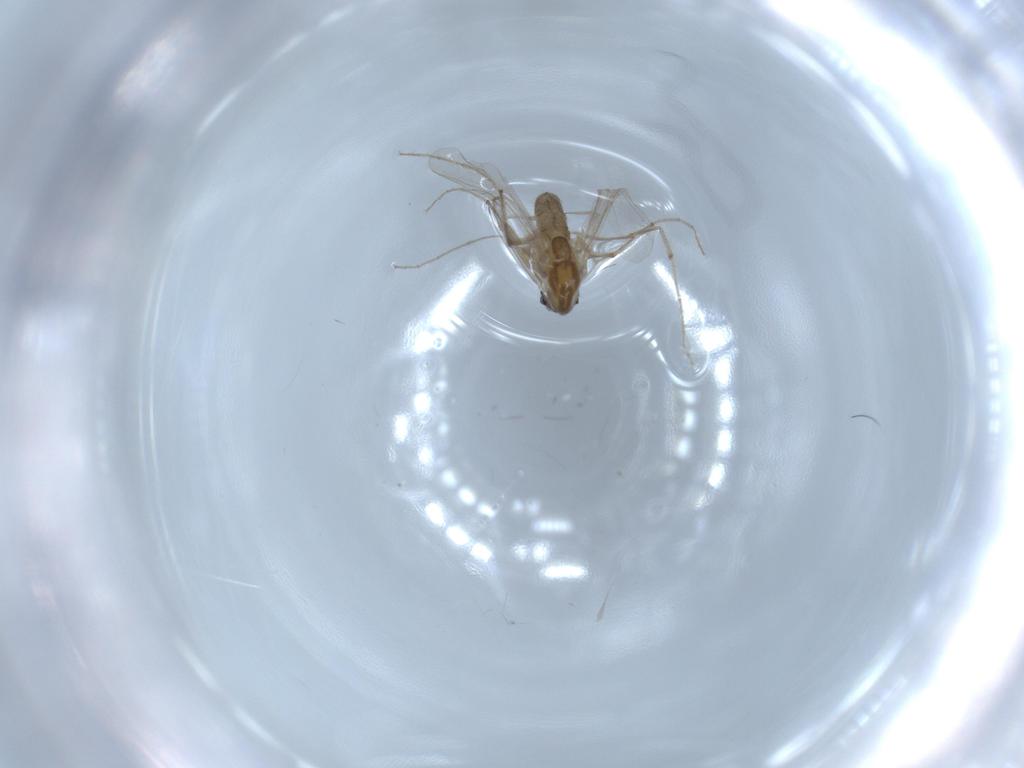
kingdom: Animalia
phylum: Arthropoda
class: Insecta
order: Diptera
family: Chironomidae
